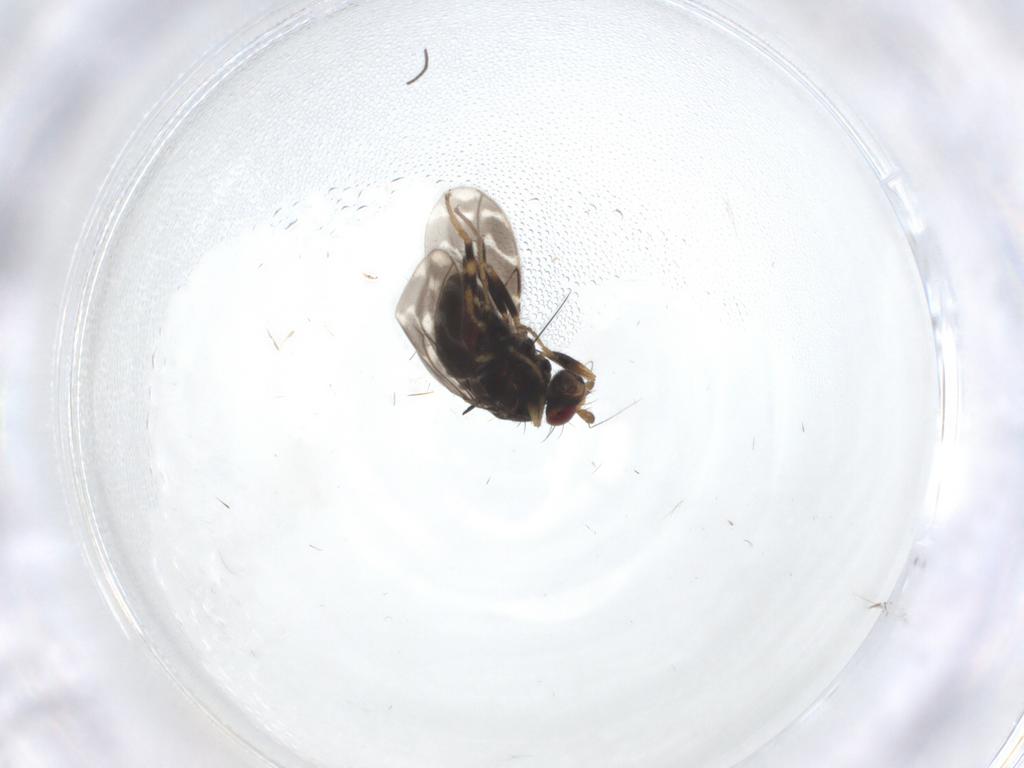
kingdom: Animalia
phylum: Arthropoda
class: Insecta
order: Diptera
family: Sphaeroceridae
